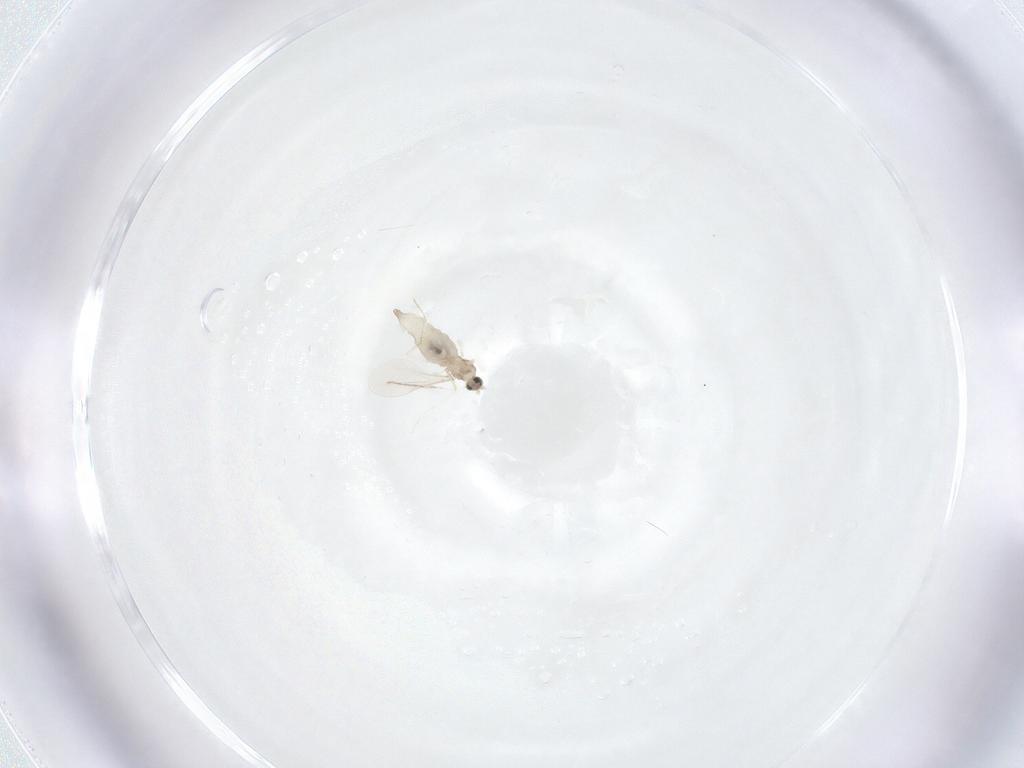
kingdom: Animalia
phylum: Arthropoda
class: Insecta
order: Diptera
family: Cecidomyiidae
